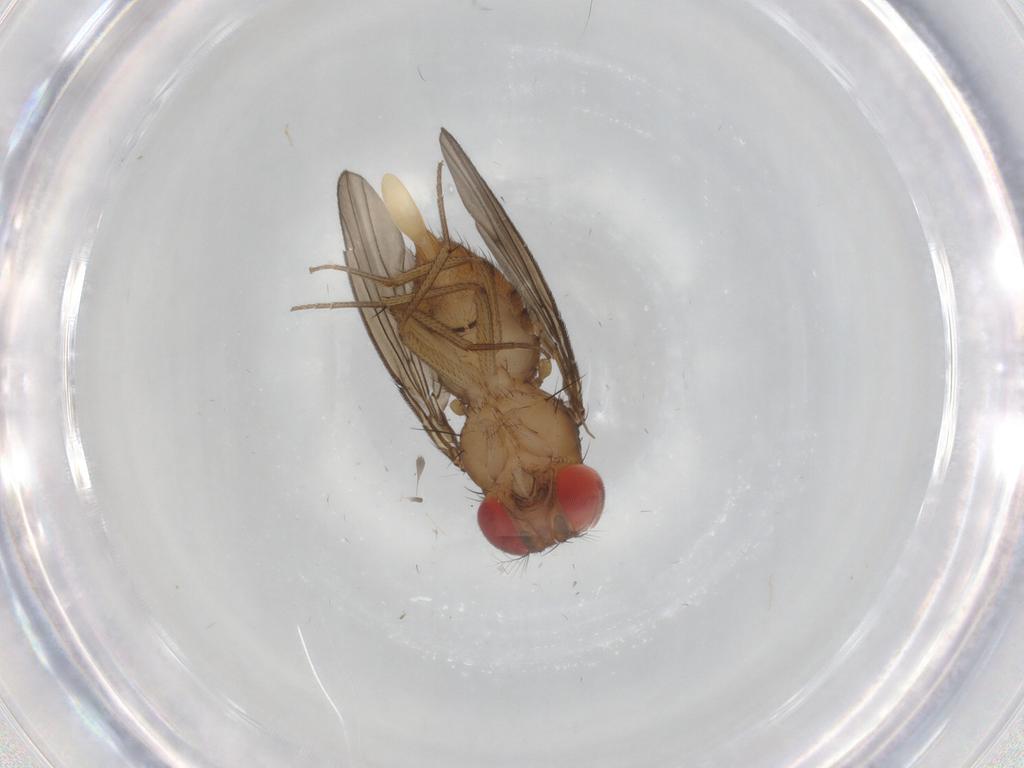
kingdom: Animalia
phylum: Arthropoda
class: Insecta
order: Diptera
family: Drosophilidae
